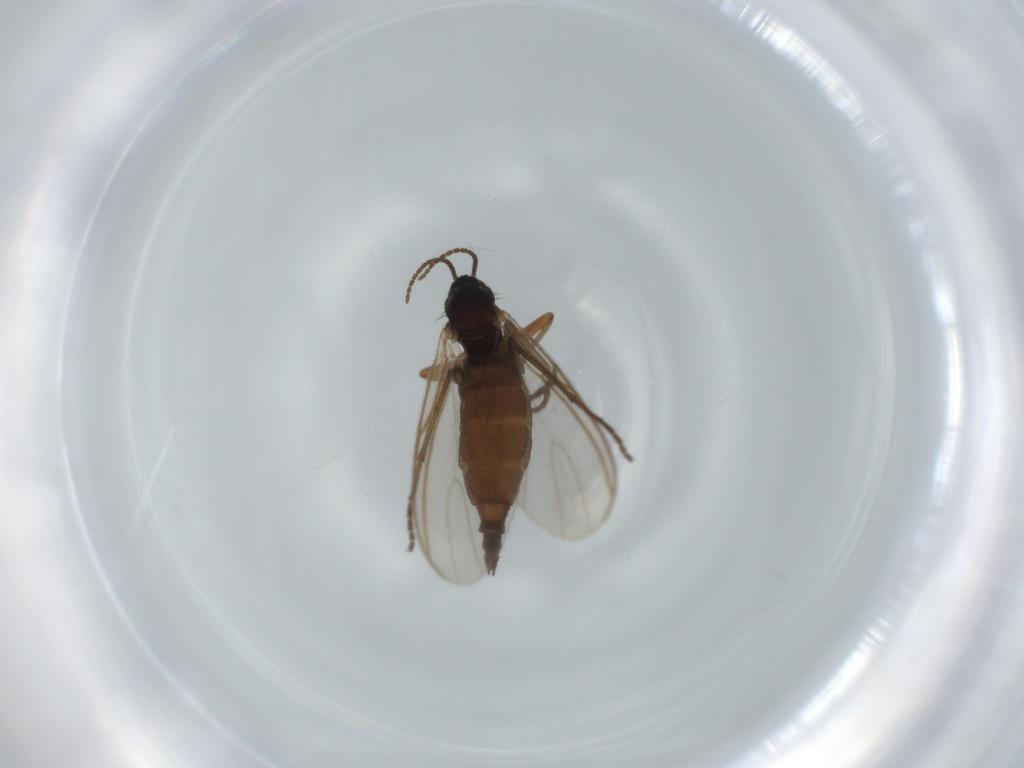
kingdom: Animalia
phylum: Arthropoda
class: Insecta
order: Diptera
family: Sciaridae
